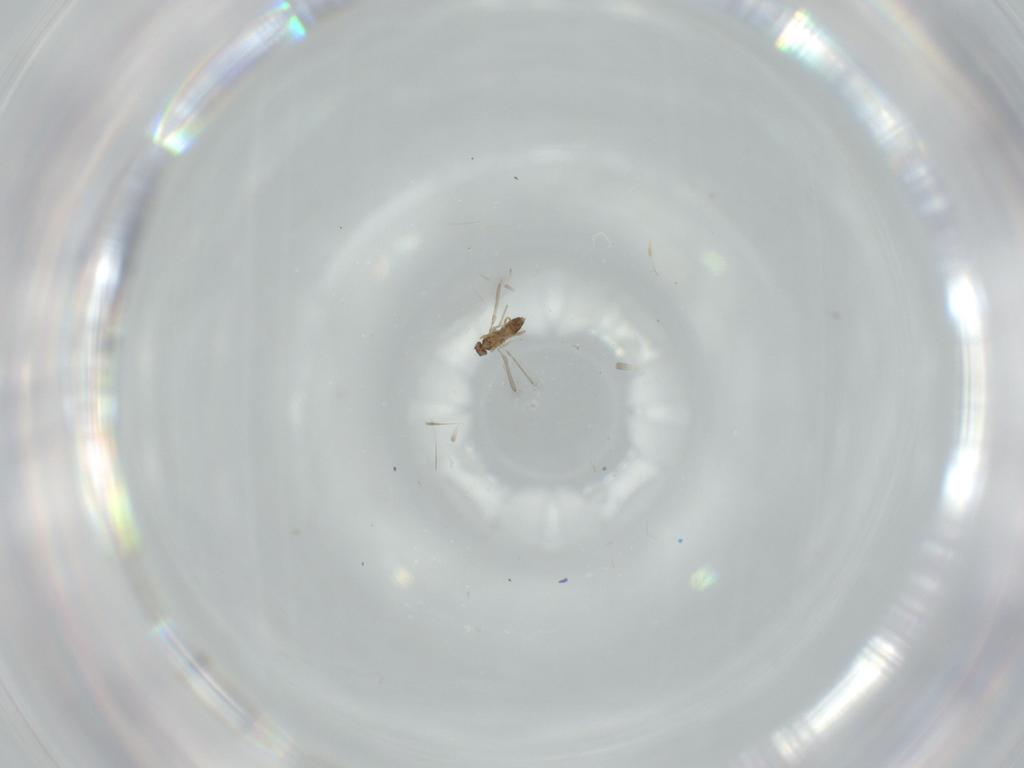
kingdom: Animalia
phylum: Arthropoda
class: Insecta
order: Hymenoptera
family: Mymaridae
